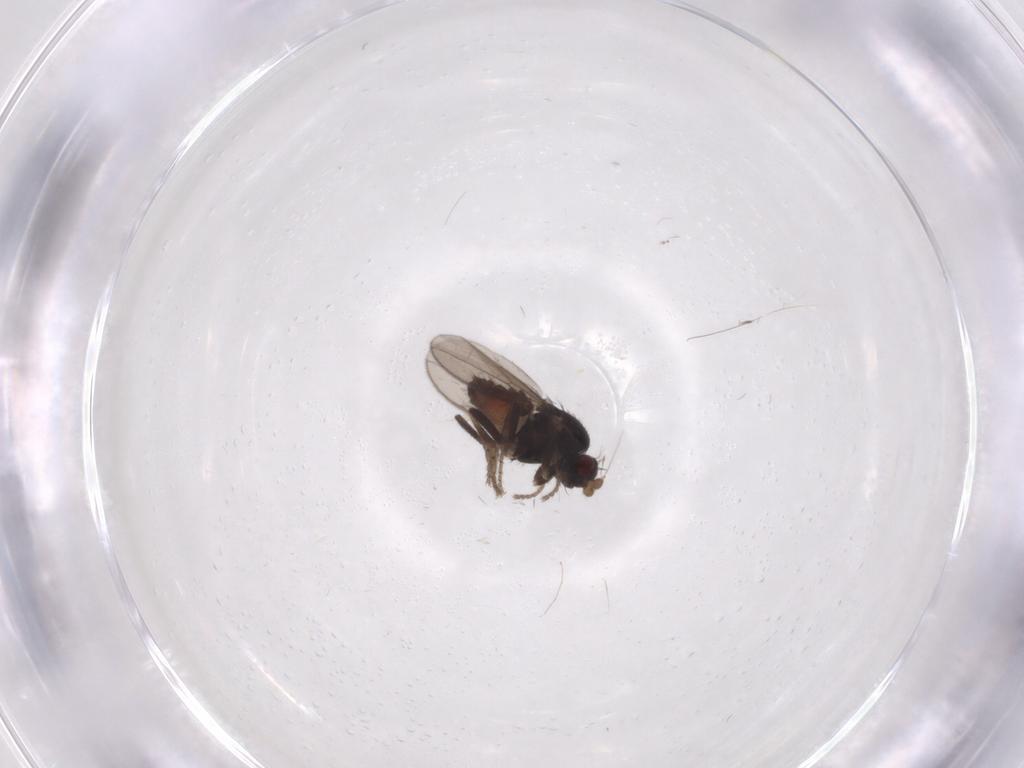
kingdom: Animalia
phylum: Arthropoda
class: Insecta
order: Diptera
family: Sphaeroceridae
